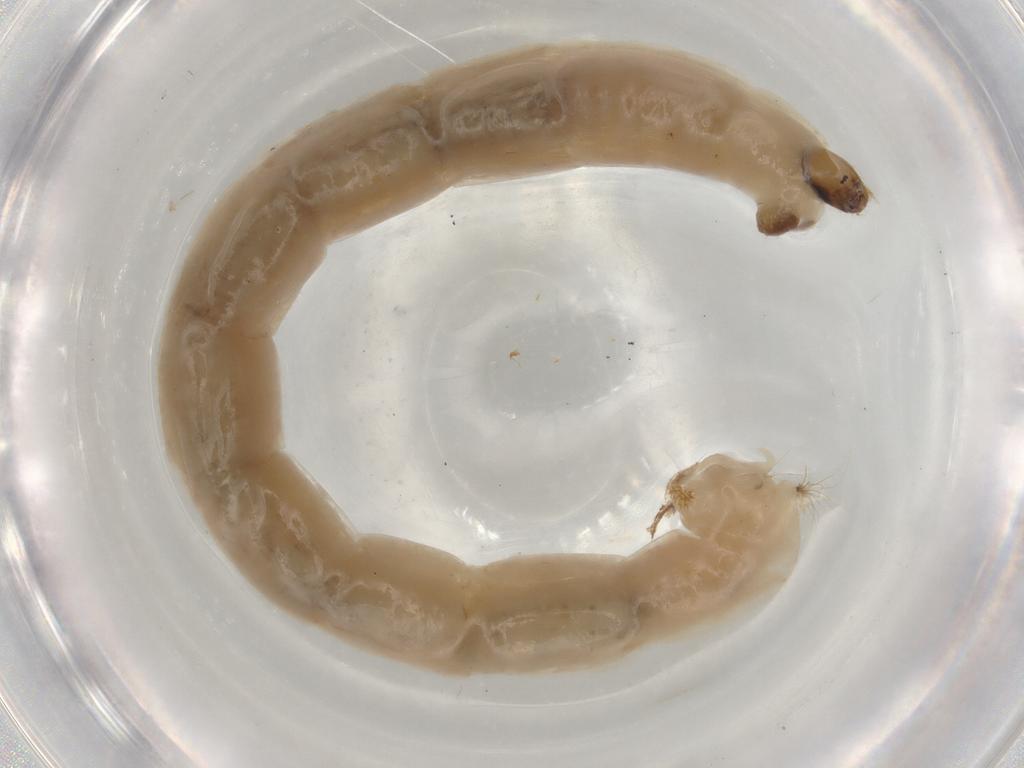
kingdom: Animalia
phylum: Arthropoda
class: Insecta
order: Diptera
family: Chironomidae
